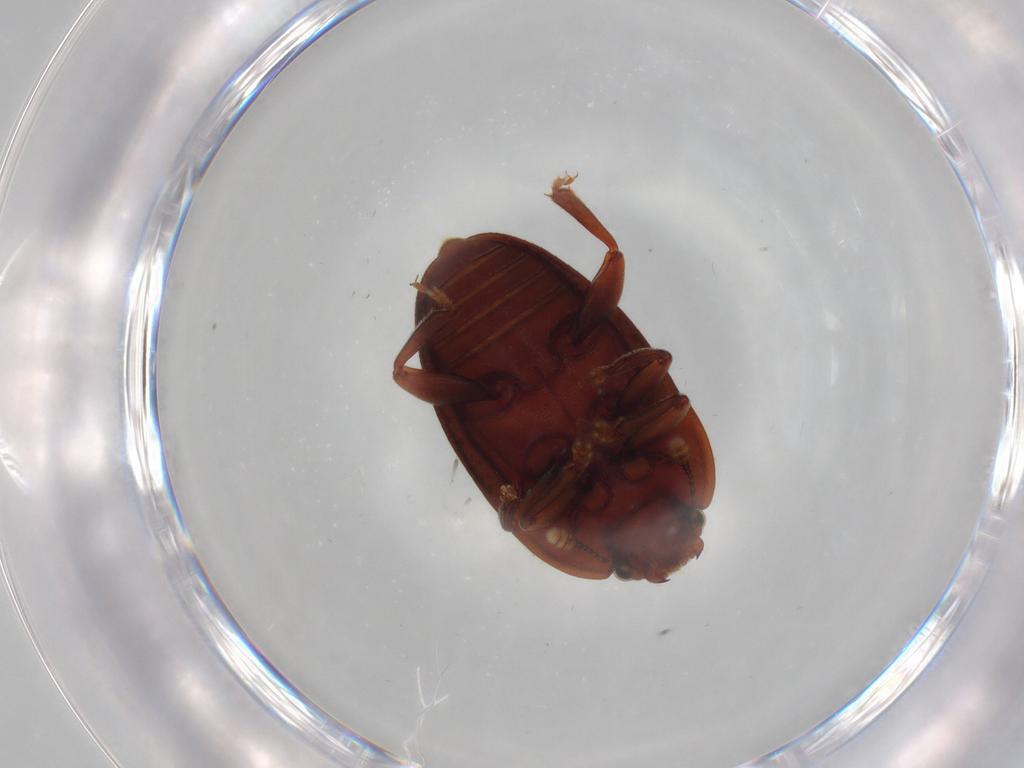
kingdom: Animalia
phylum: Arthropoda
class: Insecta
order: Coleoptera
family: Nitidulidae
